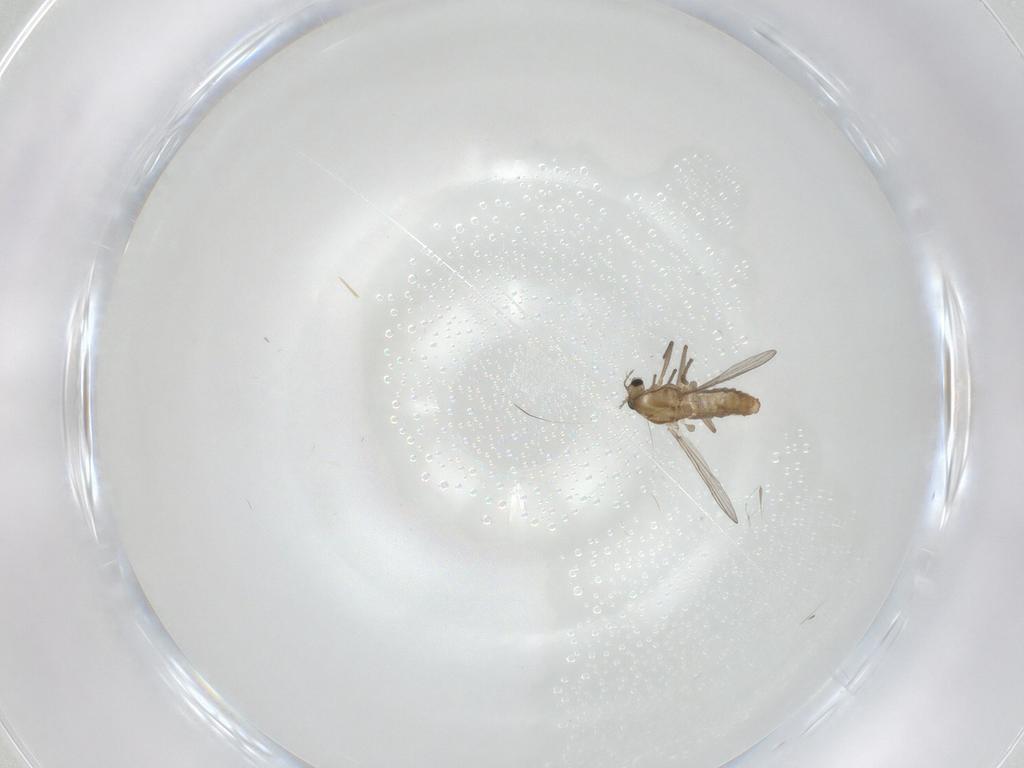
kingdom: Animalia
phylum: Arthropoda
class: Insecta
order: Diptera
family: Chironomidae
